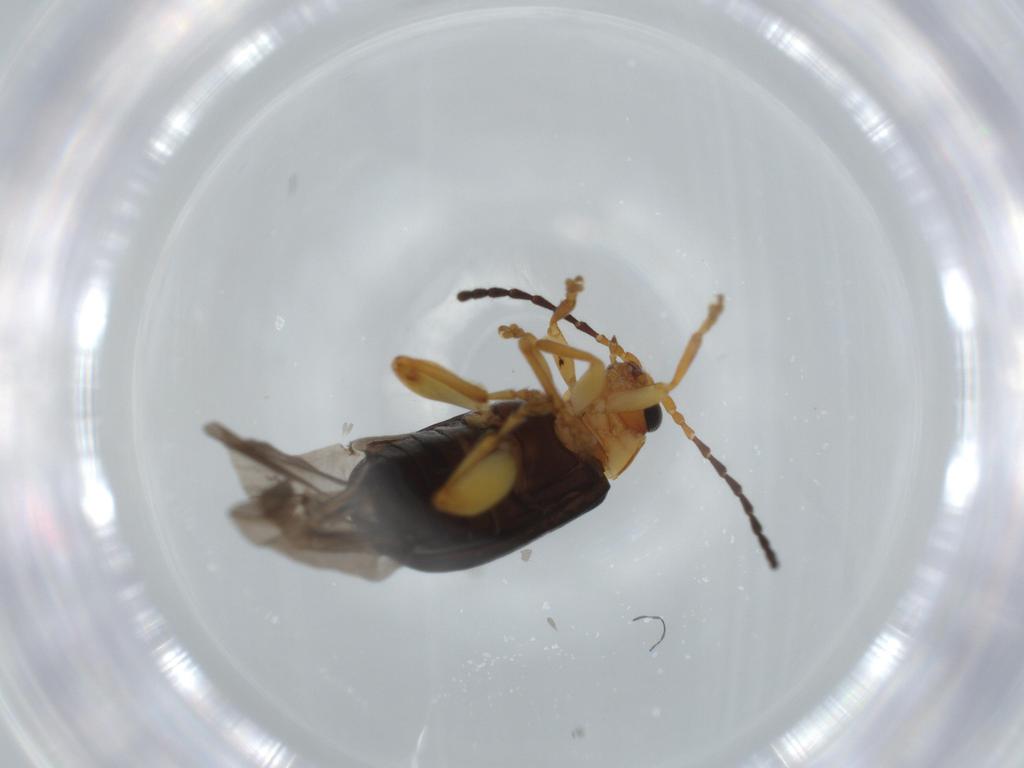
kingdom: Animalia
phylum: Arthropoda
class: Insecta
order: Coleoptera
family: Chrysomelidae
